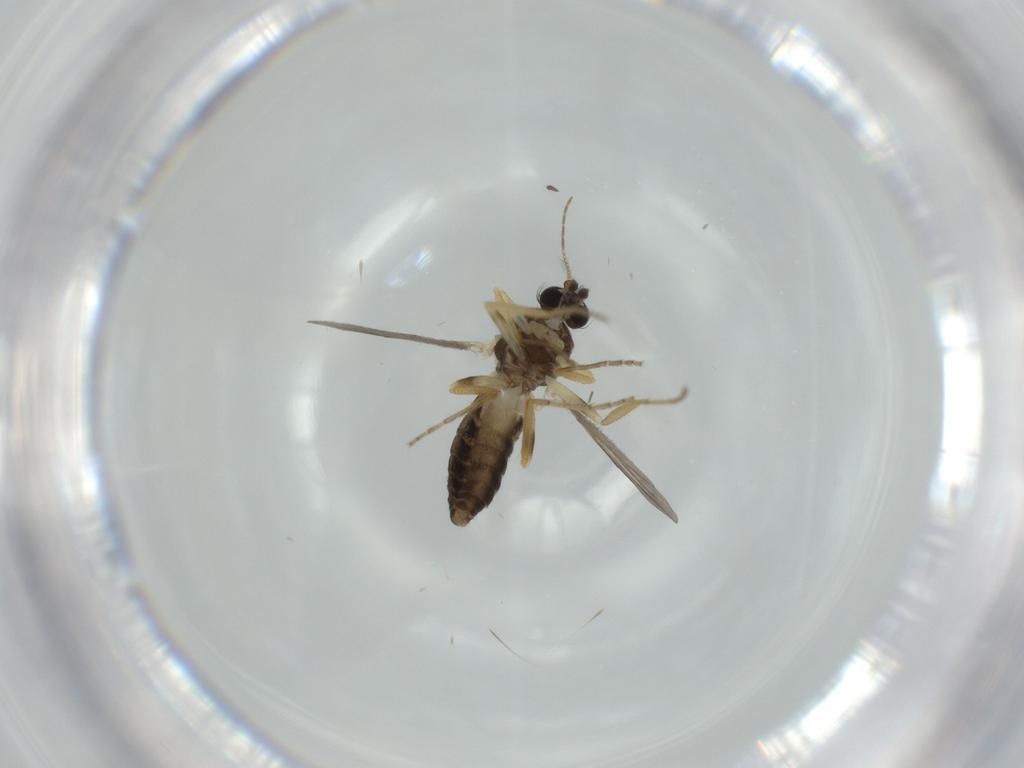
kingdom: Animalia
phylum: Arthropoda
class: Insecta
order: Diptera
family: Ceratopogonidae
